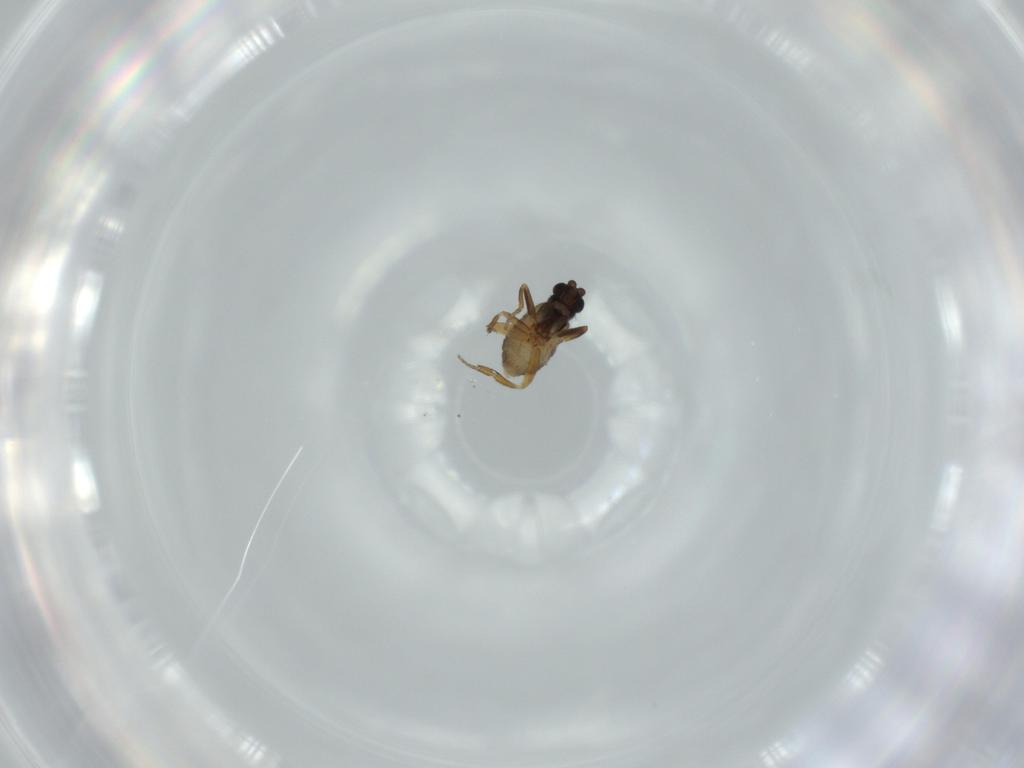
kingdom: Animalia
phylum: Arthropoda
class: Insecta
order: Diptera
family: Phoridae
